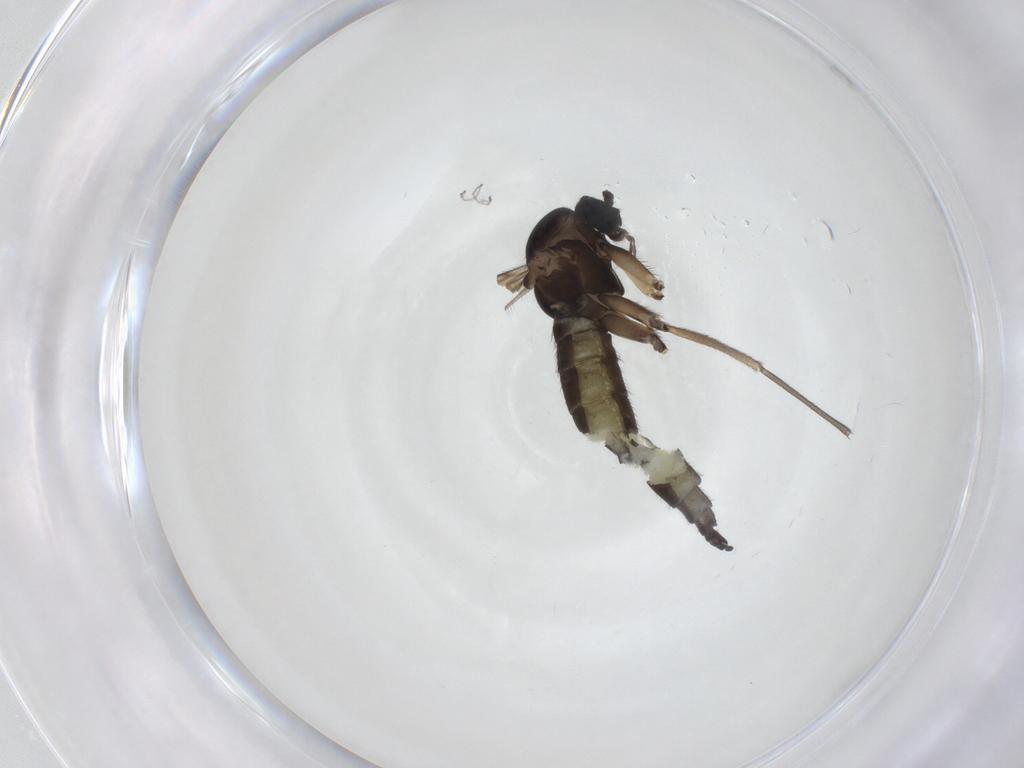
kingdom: Animalia
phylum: Arthropoda
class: Insecta
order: Diptera
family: Sciaridae
